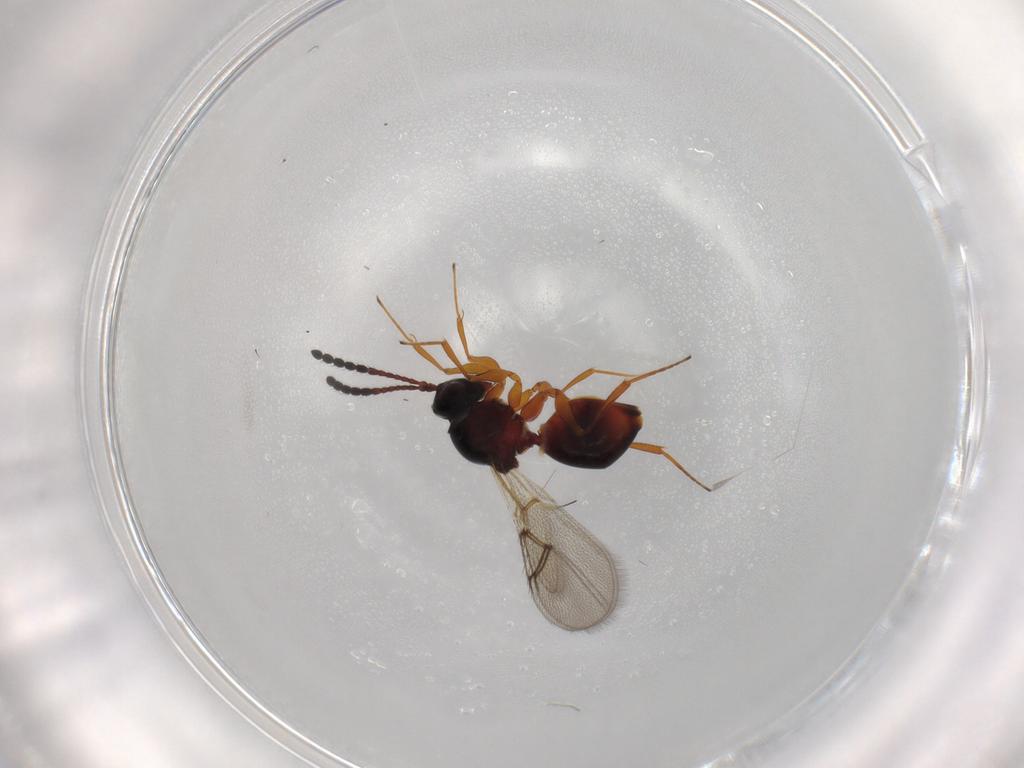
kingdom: Animalia
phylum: Arthropoda
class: Insecta
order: Hymenoptera
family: Figitidae
